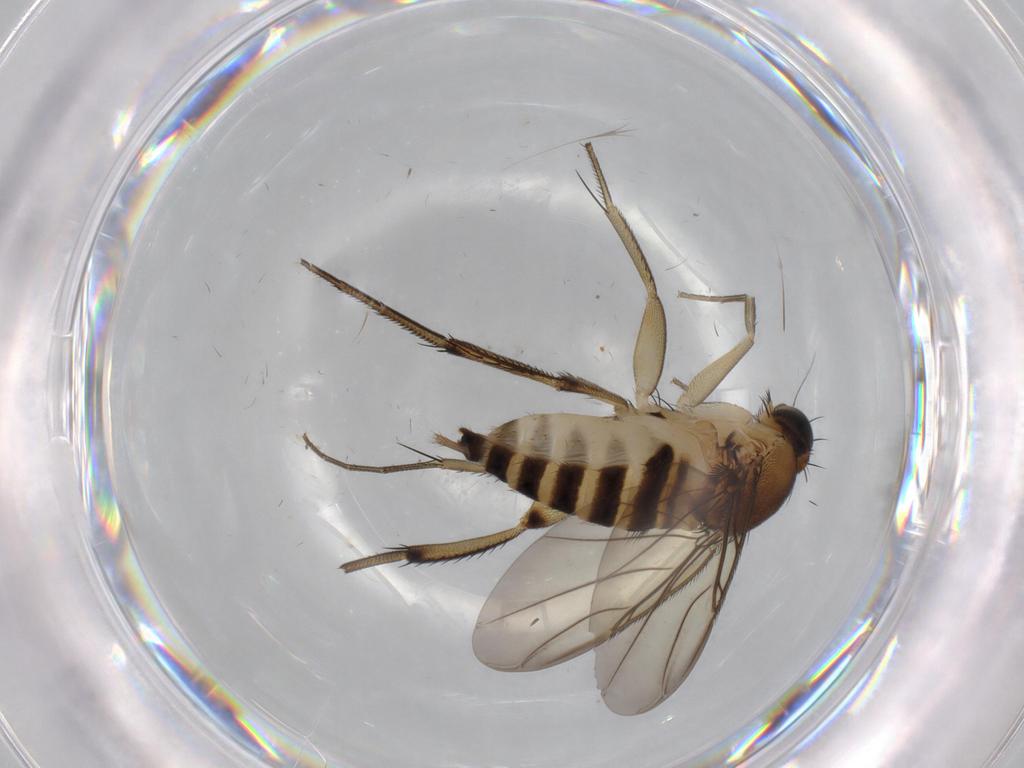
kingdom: Animalia
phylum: Arthropoda
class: Insecta
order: Diptera
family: Phoridae
